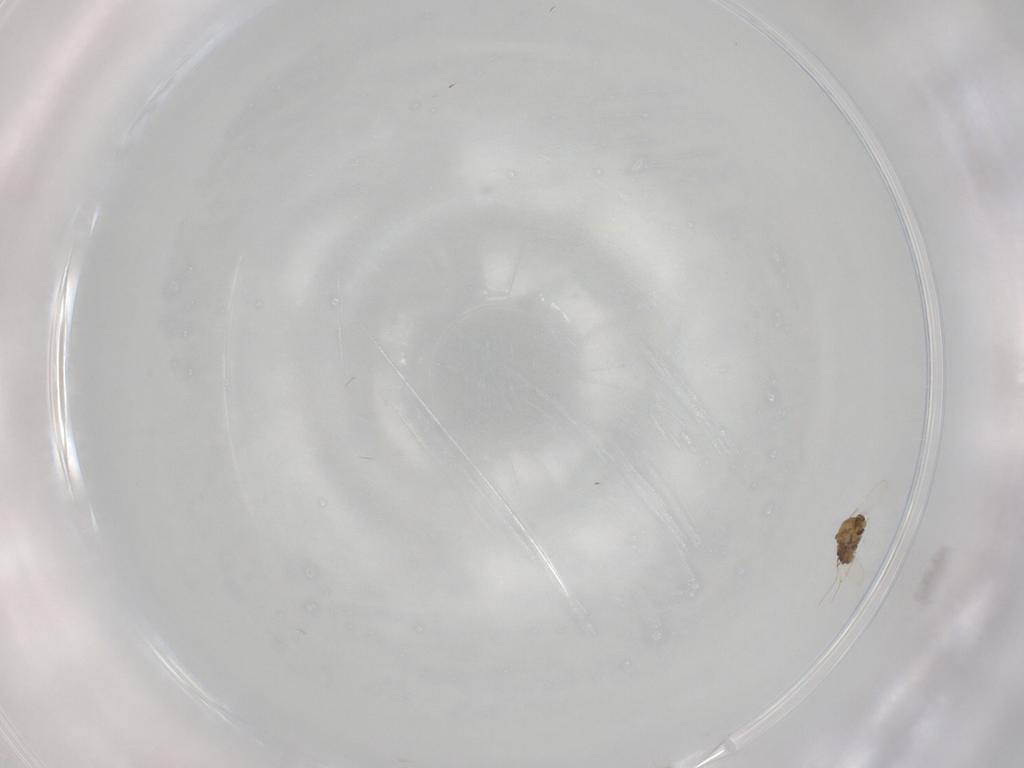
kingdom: Animalia
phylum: Arthropoda
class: Insecta
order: Diptera
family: Chironomidae
